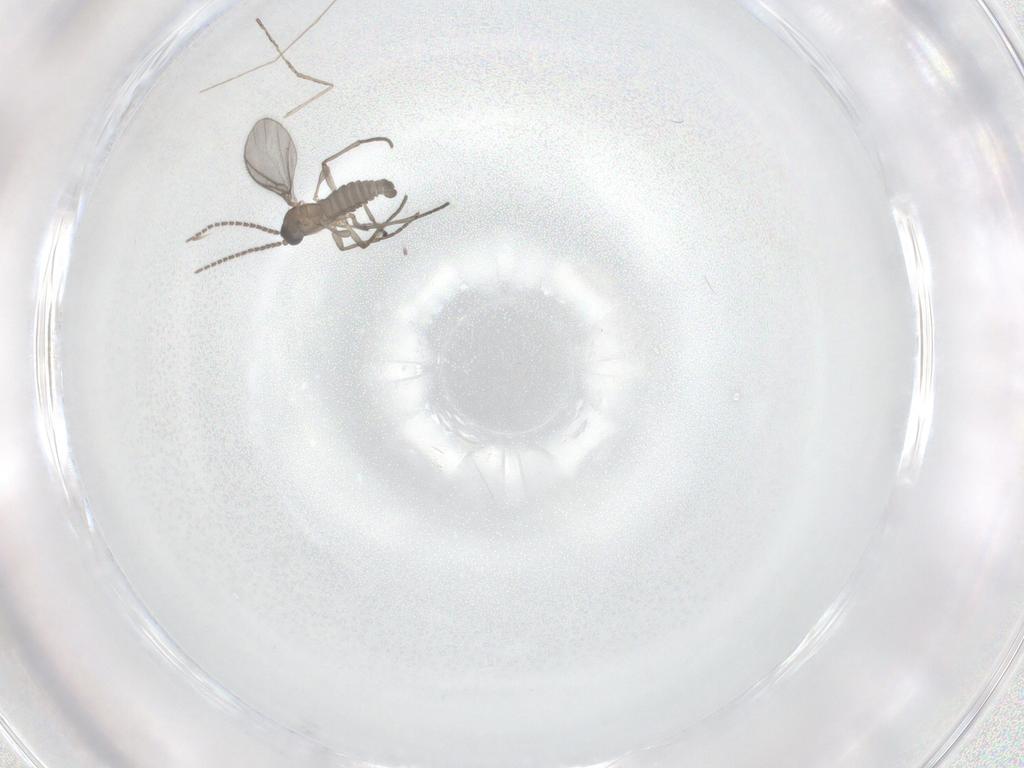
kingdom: Animalia
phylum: Arthropoda
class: Insecta
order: Diptera
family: Sciaridae
